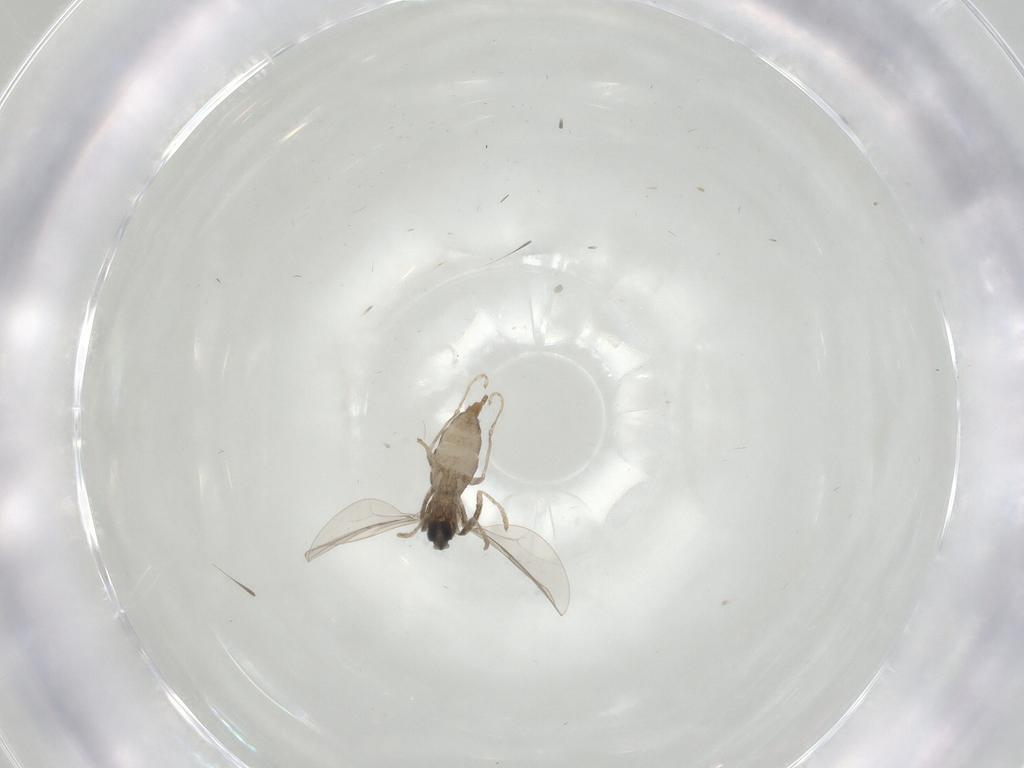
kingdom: Animalia
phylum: Arthropoda
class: Insecta
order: Diptera
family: Cecidomyiidae
